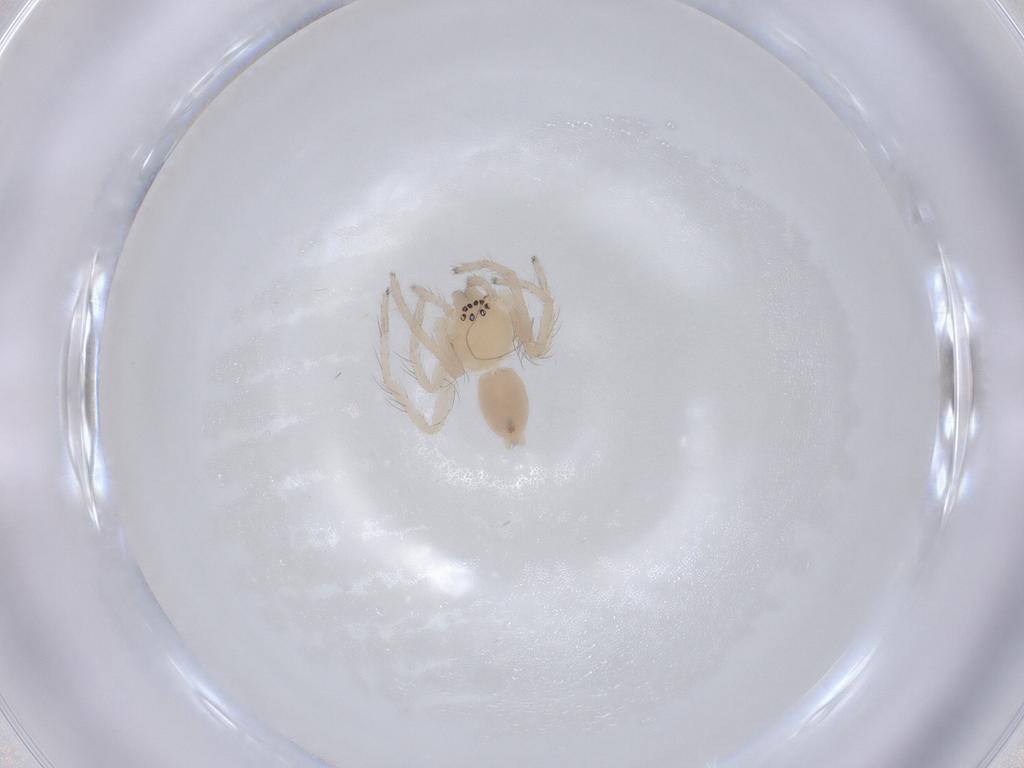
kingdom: Animalia
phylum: Arthropoda
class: Arachnida
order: Araneae
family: Anyphaenidae
